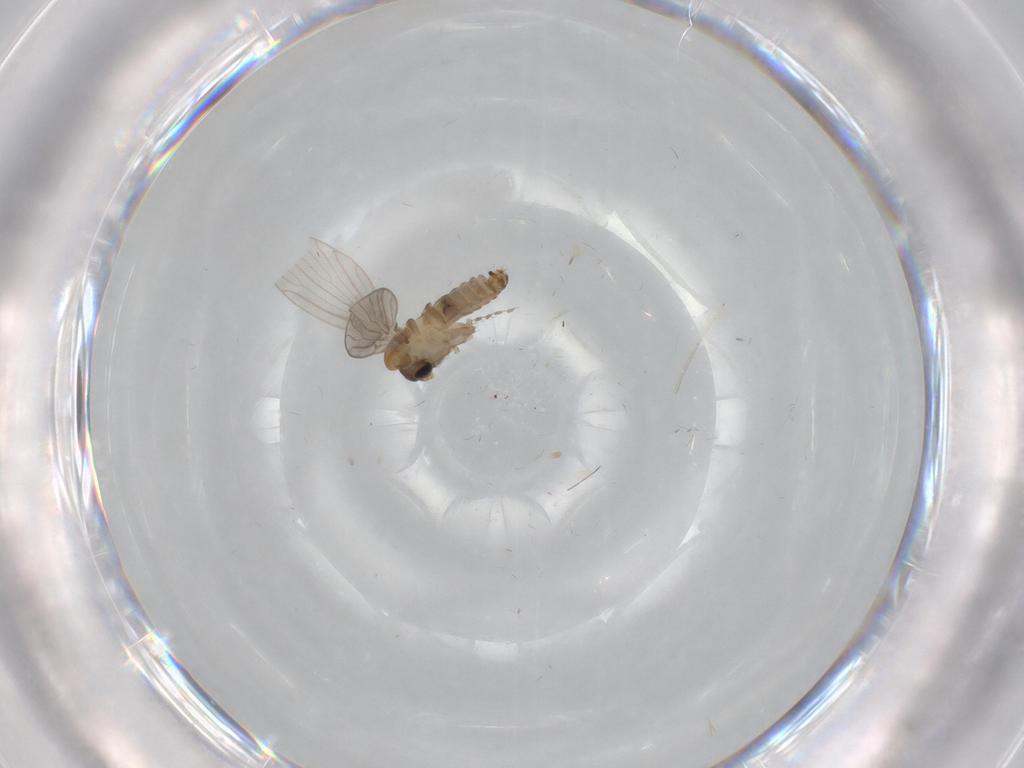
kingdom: Animalia
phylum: Arthropoda
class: Insecta
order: Diptera
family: Psychodidae
